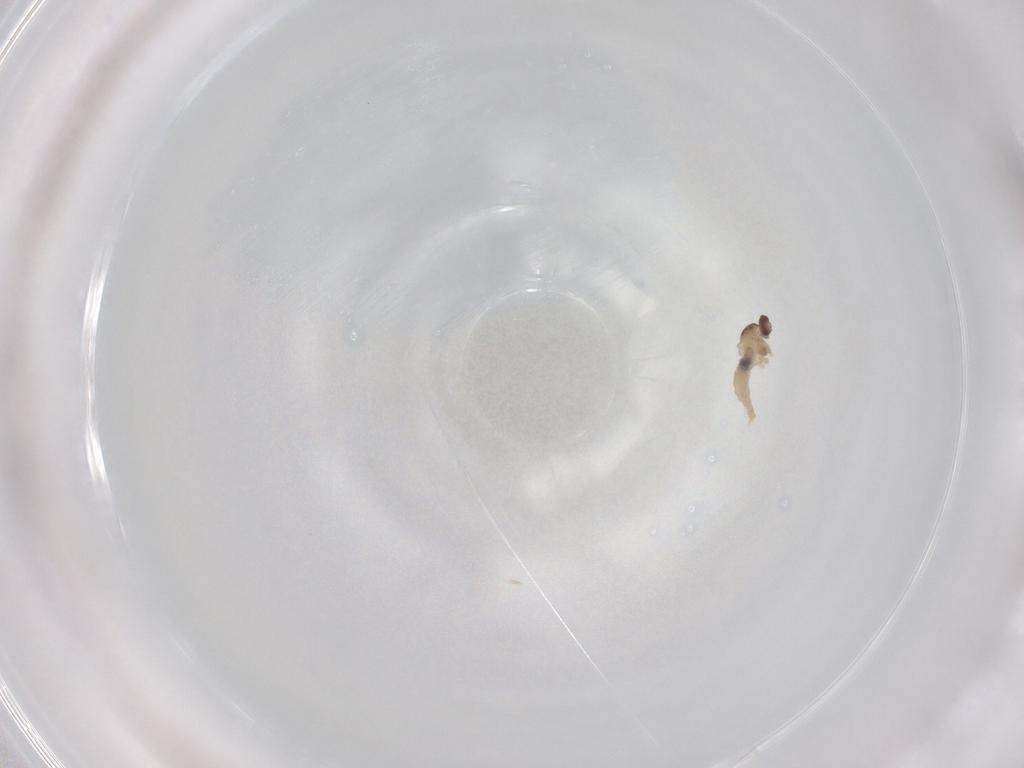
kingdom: Animalia
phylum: Arthropoda
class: Insecta
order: Diptera
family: Cecidomyiidae
